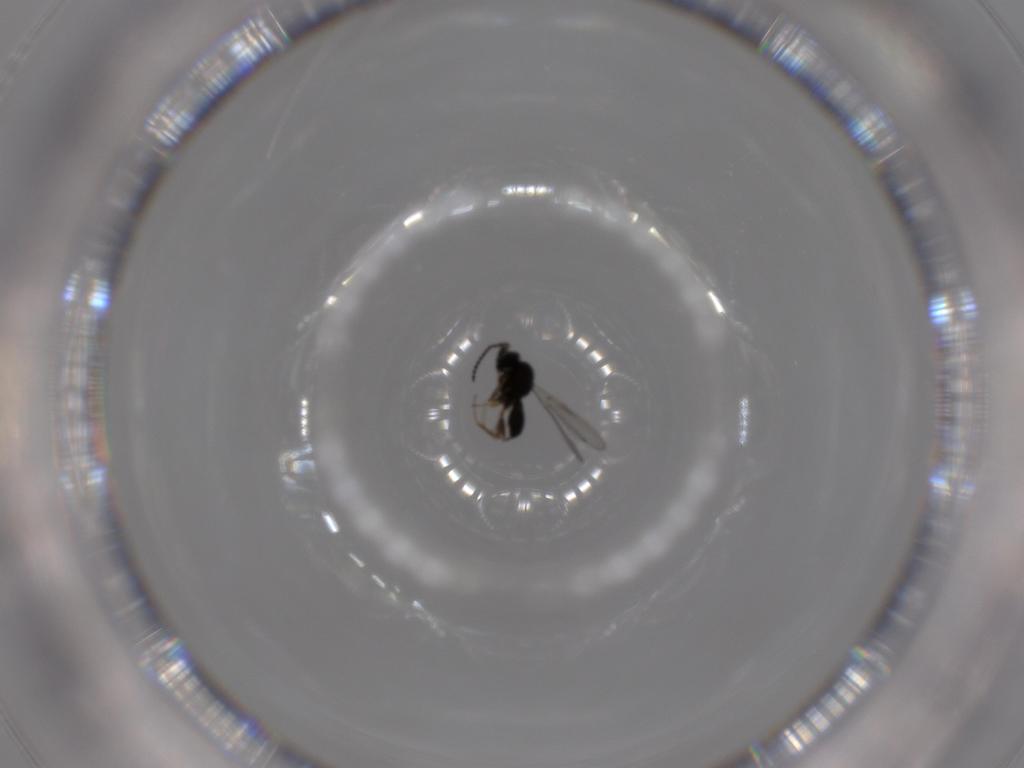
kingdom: Animalia
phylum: Arthropoda
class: Insecta
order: Hymenoptera
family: Scelionidae
